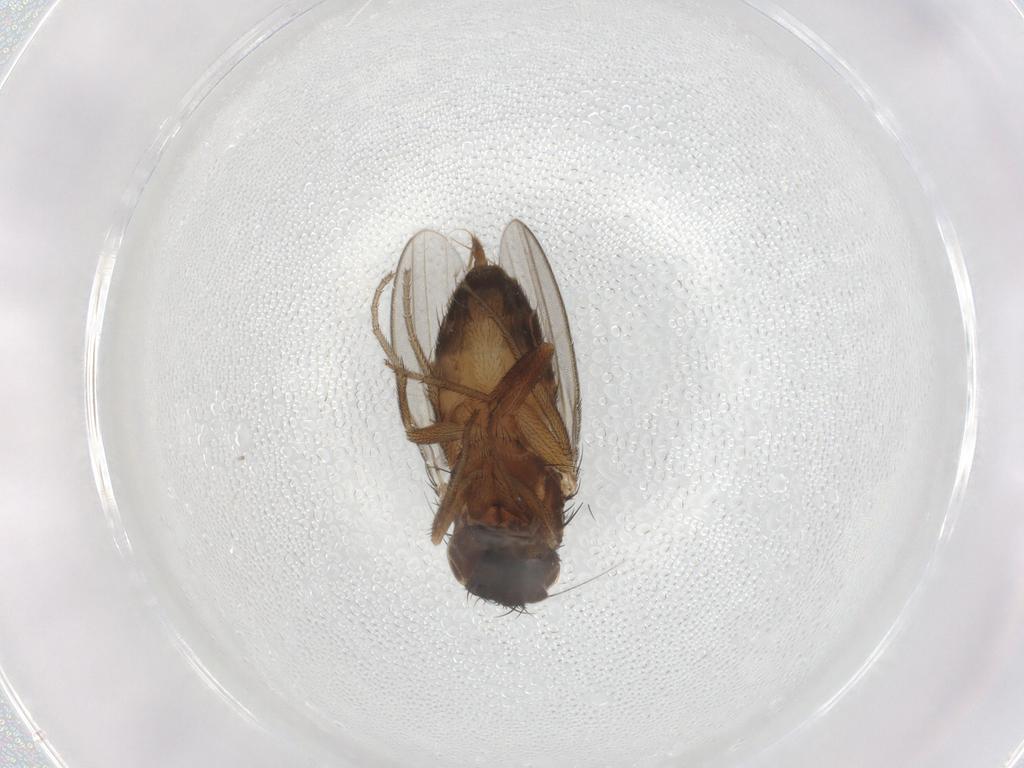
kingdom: Animalia
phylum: Arthropoda
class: Insecta
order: Diptera
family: Milichiidae
